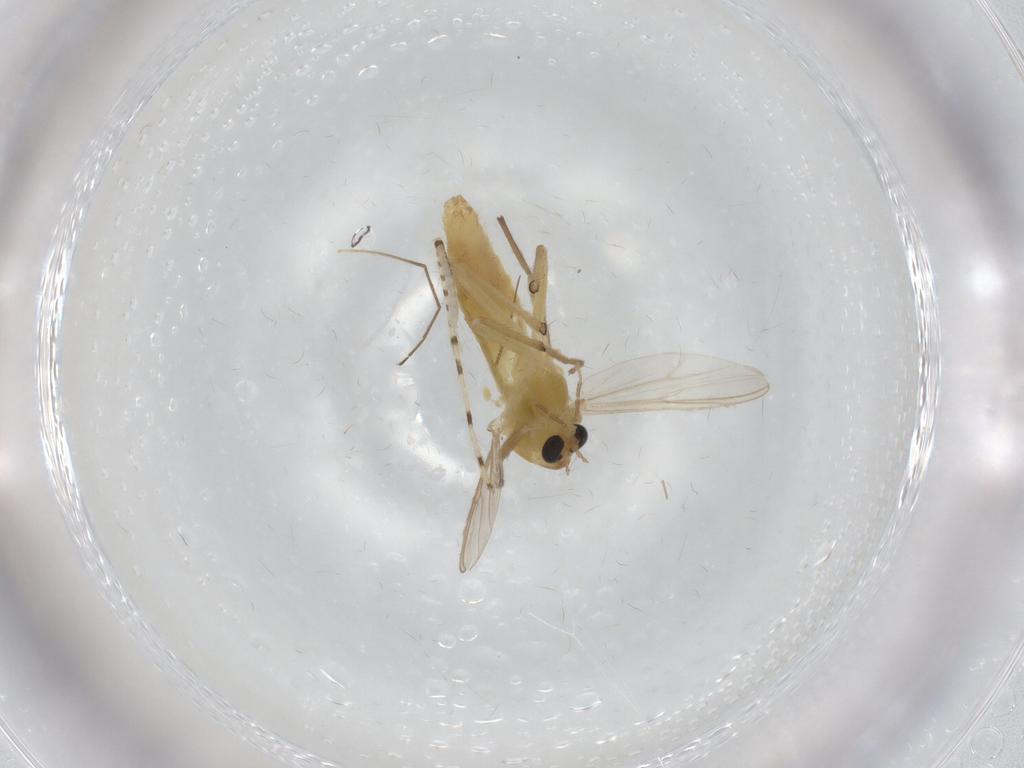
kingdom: Animalia
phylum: Arthropoda
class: Insecta
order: Diptera
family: Chironomidae
